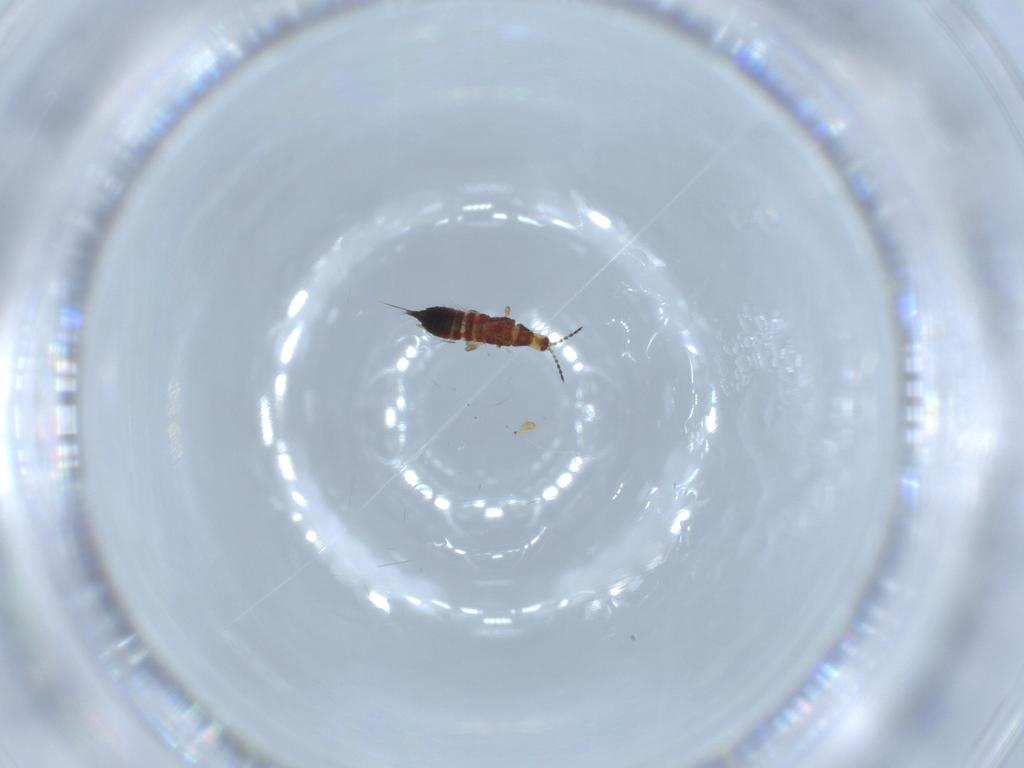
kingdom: Animalia
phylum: Arthropoda
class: Insecta
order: Thysanoptera
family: Phlaeothripidae
